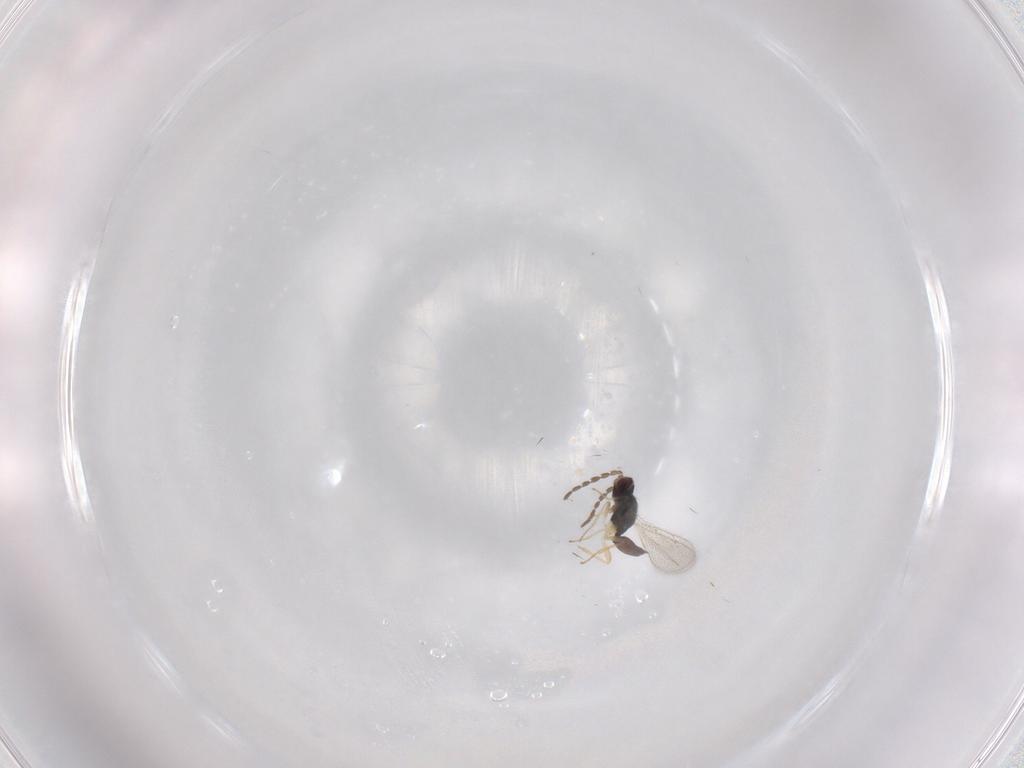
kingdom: Animalia
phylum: Arthropoda
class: Insecta
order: Hymenoptera
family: Eulophidae
